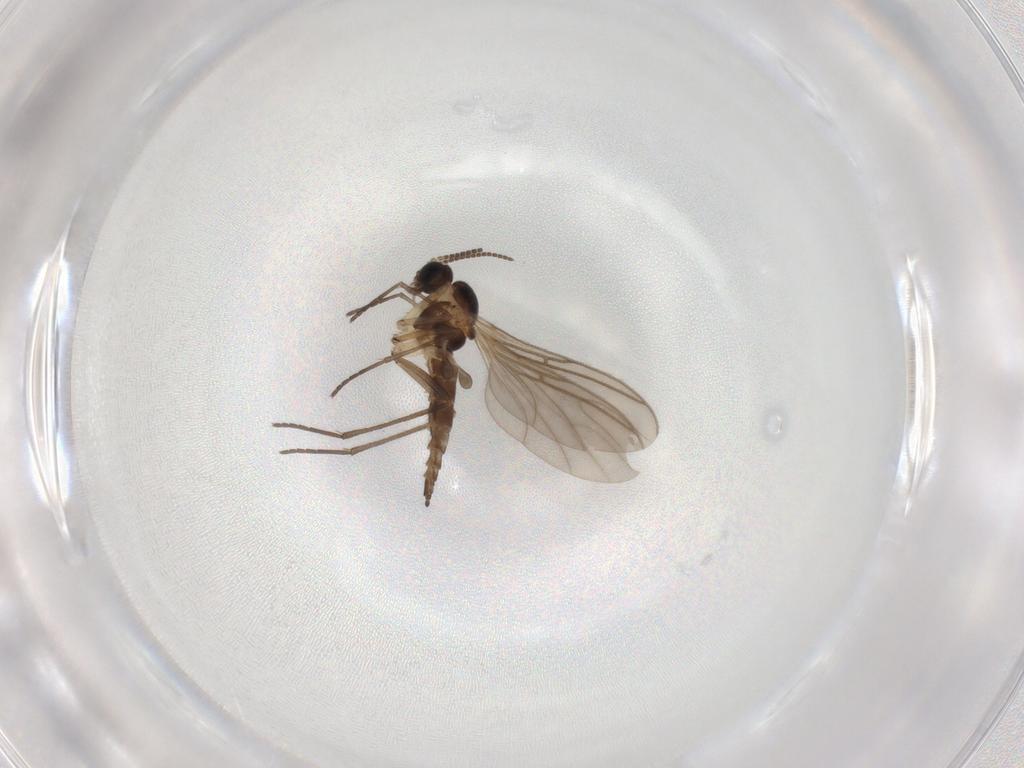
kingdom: Animalia
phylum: Arthropoda
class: Insecta
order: Diptera
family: Sciaridae
